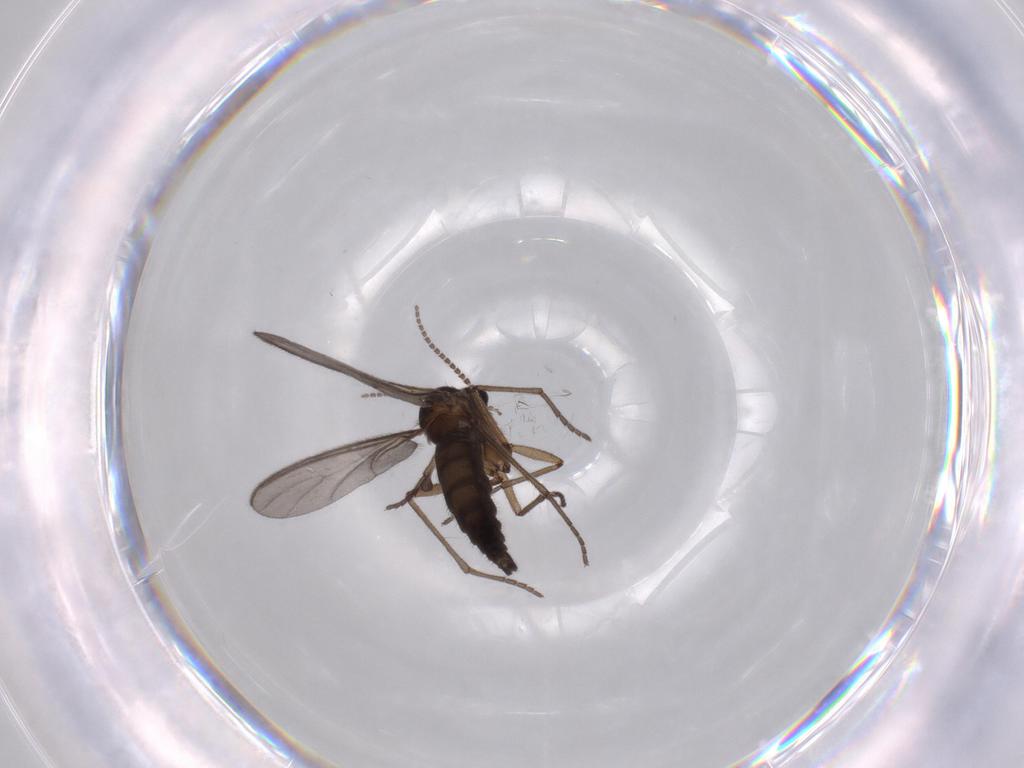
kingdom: Animalia
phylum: Arthropoda
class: Insecta
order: Diptera
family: Sciaridae
